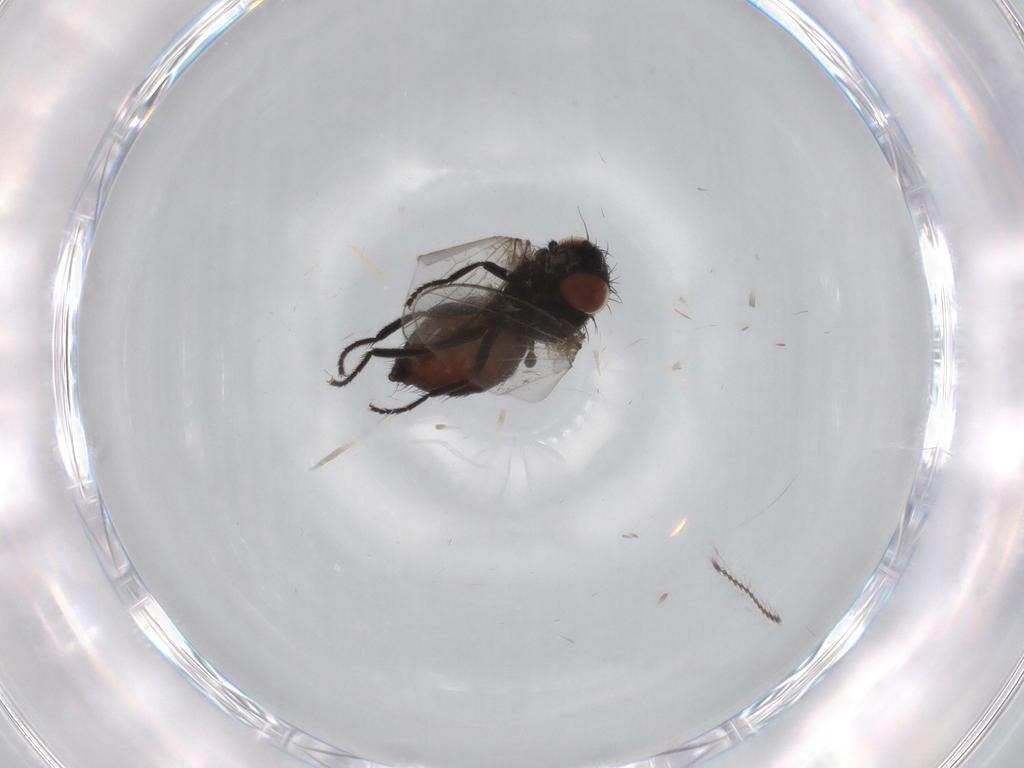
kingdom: Animalia
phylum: Arthropoda
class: Insecta
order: Diptera
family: Milichiidae
